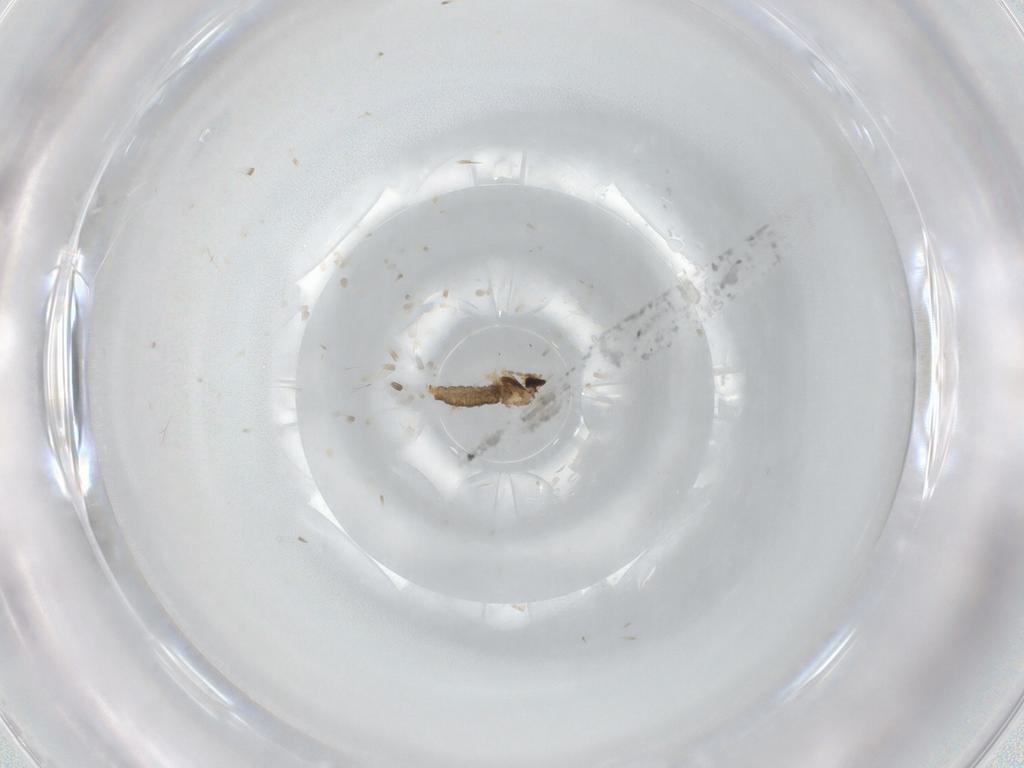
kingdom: Animalia
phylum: Arthropoda
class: Insecta
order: Diptera
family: Cecidomyiidae
